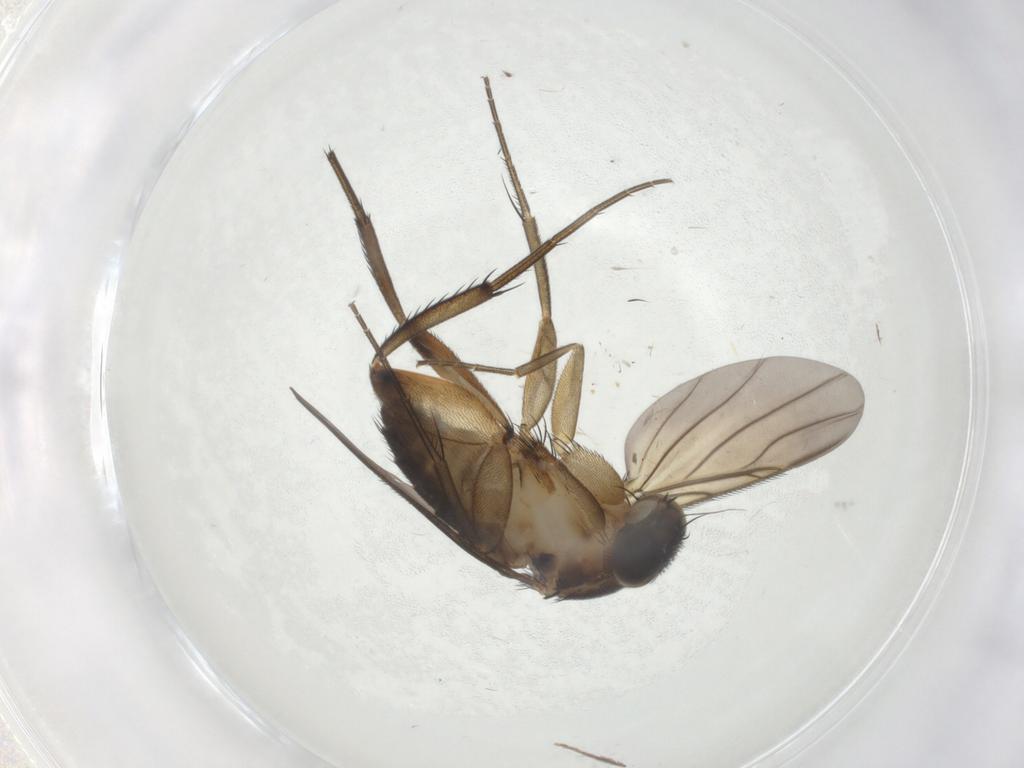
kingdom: Animalia
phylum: Arthropoda
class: Insecta
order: Diptera
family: Phoridae
